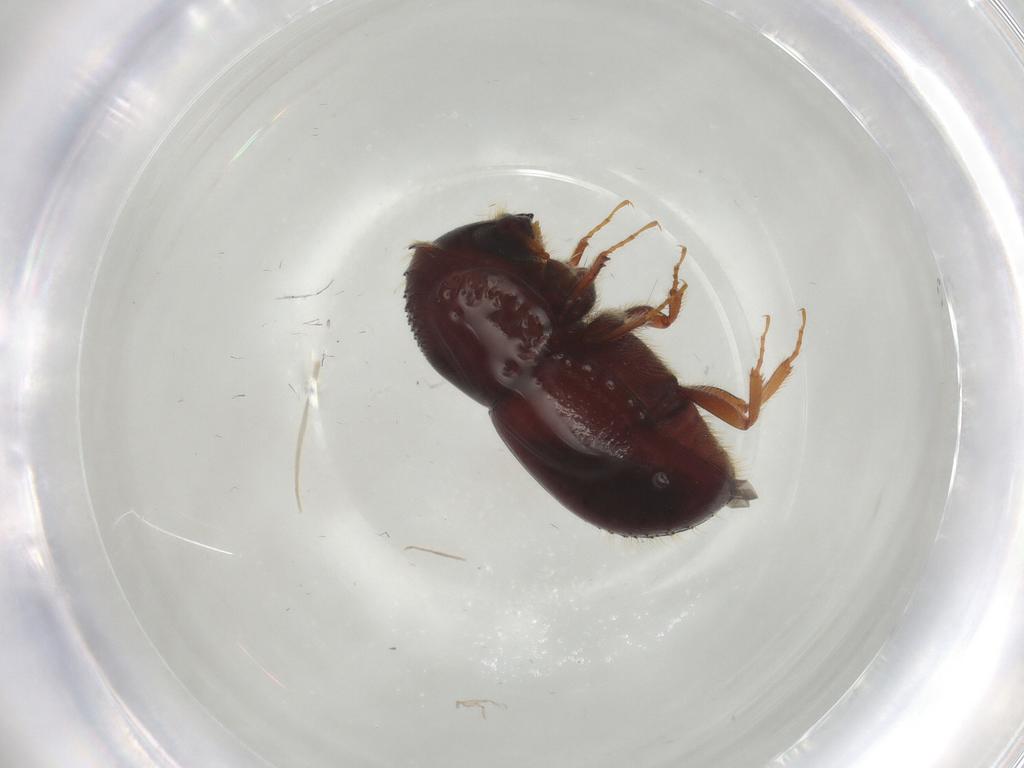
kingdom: Animalia
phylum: Arthropoda
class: Insecta
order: Coleoptera
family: Curculionidae
